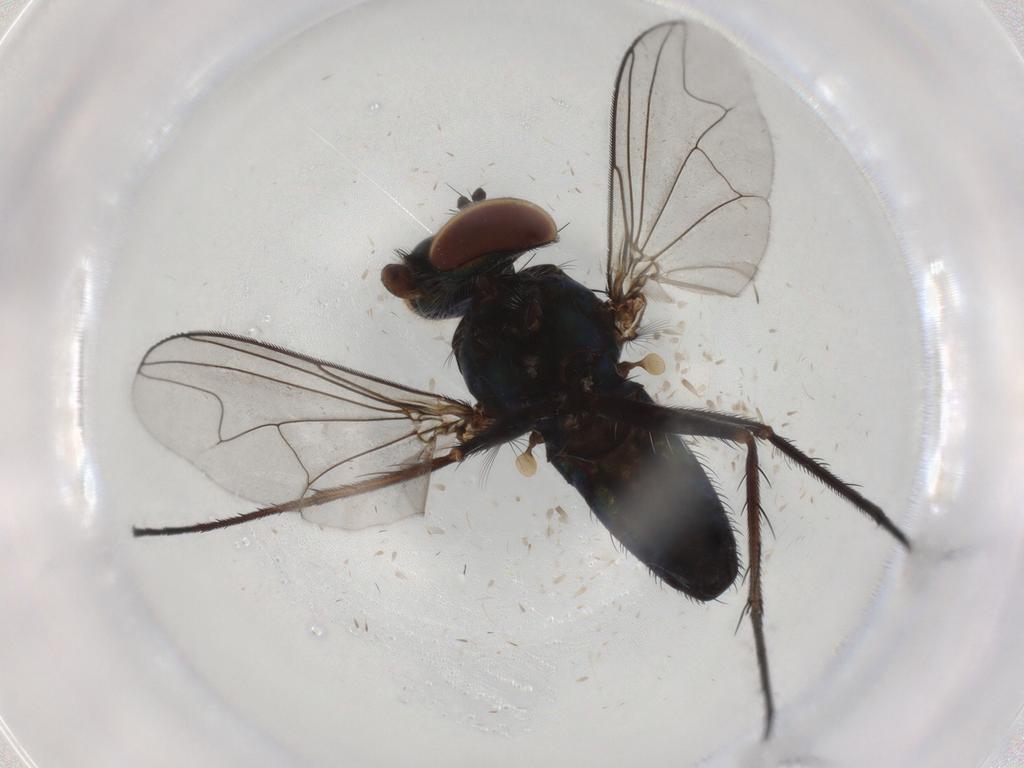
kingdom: Animalia
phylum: Arthropoda
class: Insecta
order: Diptera
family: Dolichopodidae
